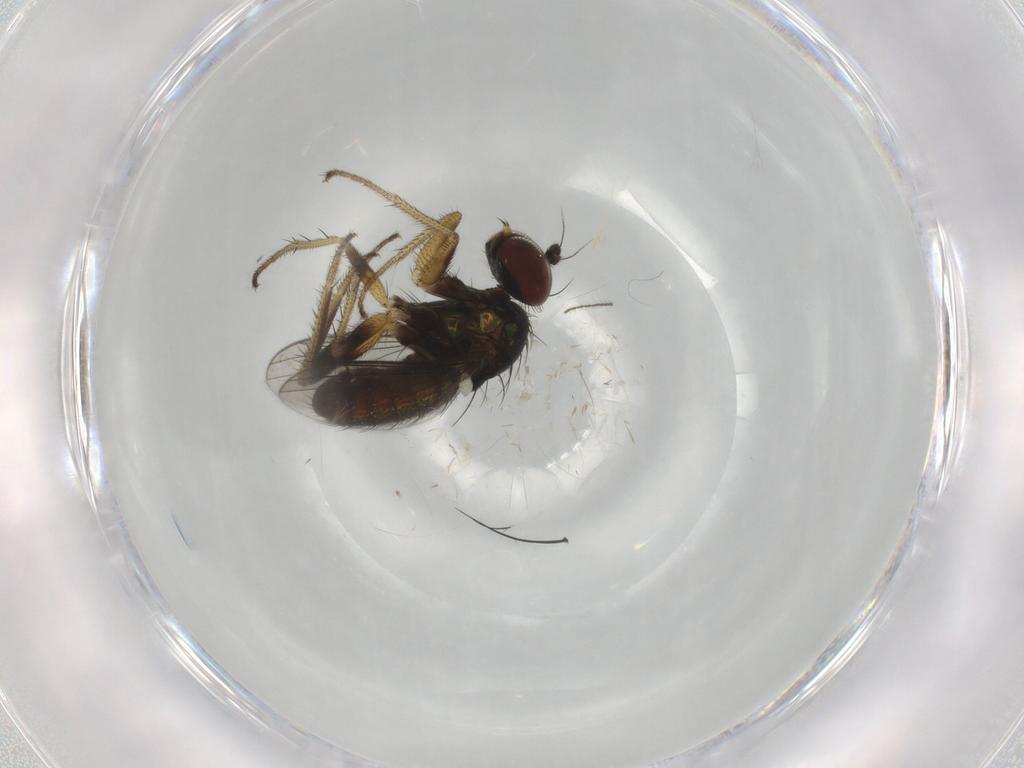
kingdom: Animalia
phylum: Arthropoda
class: Insecta
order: Diptera
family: Dolichopodidae
